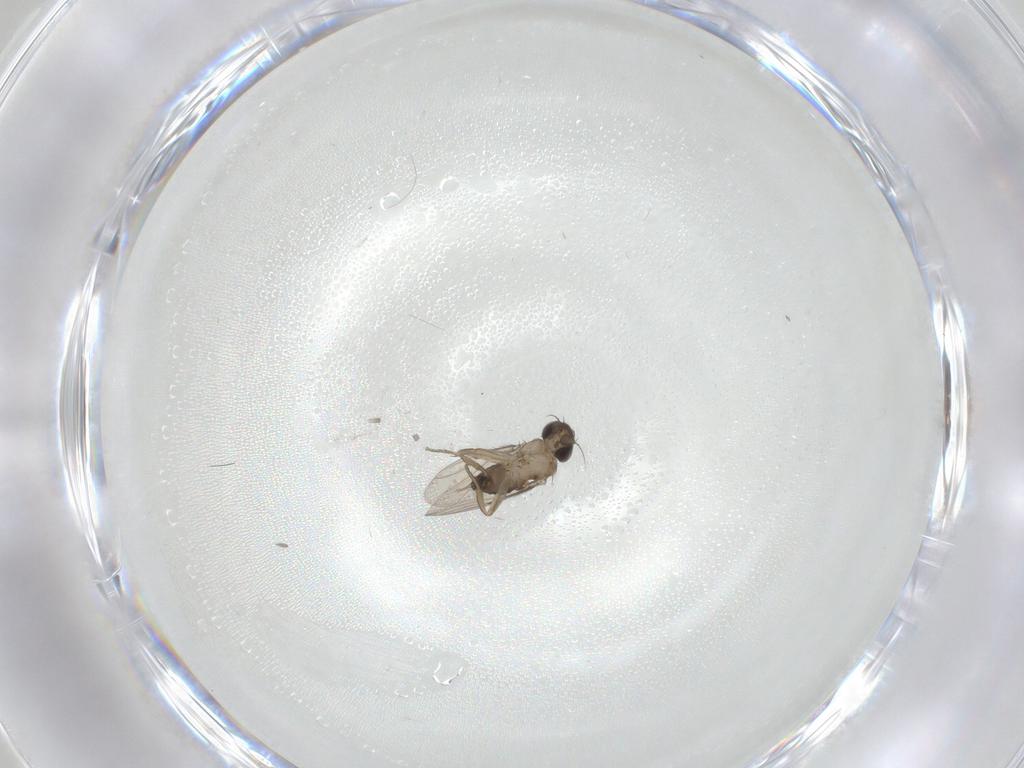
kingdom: Animalia
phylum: Arthropoda
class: Insecta
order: Diptera
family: Phoridae
